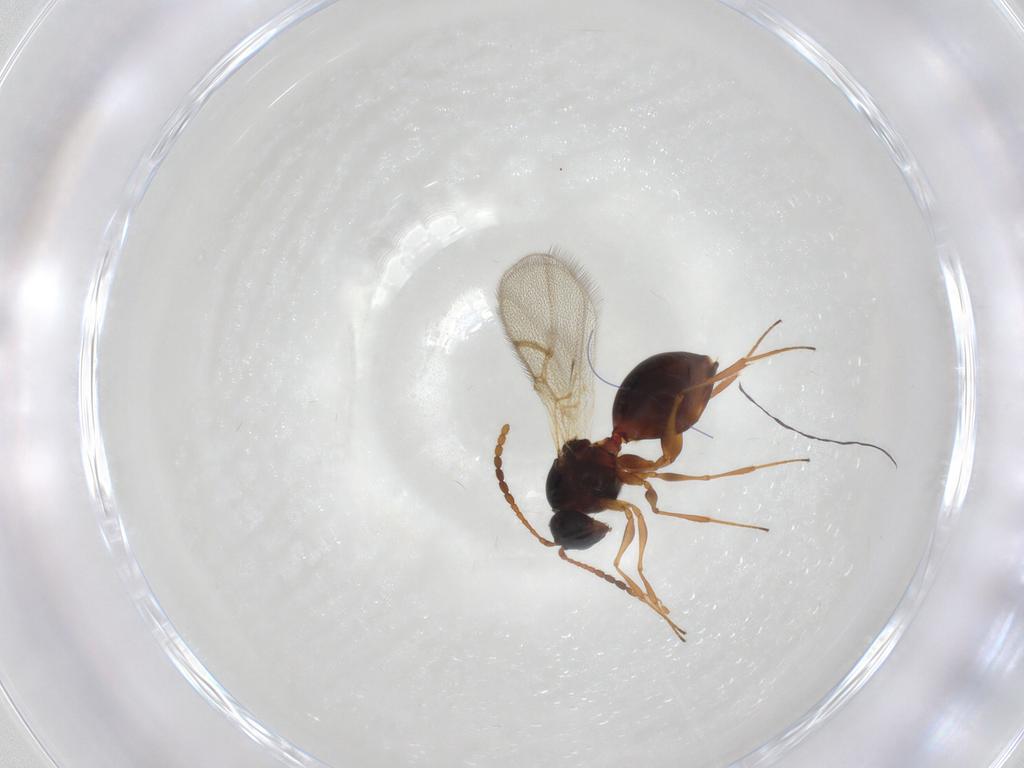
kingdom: Animalia
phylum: Arthropoda
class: Insecta
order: Hymenoptera
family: Figitidae
